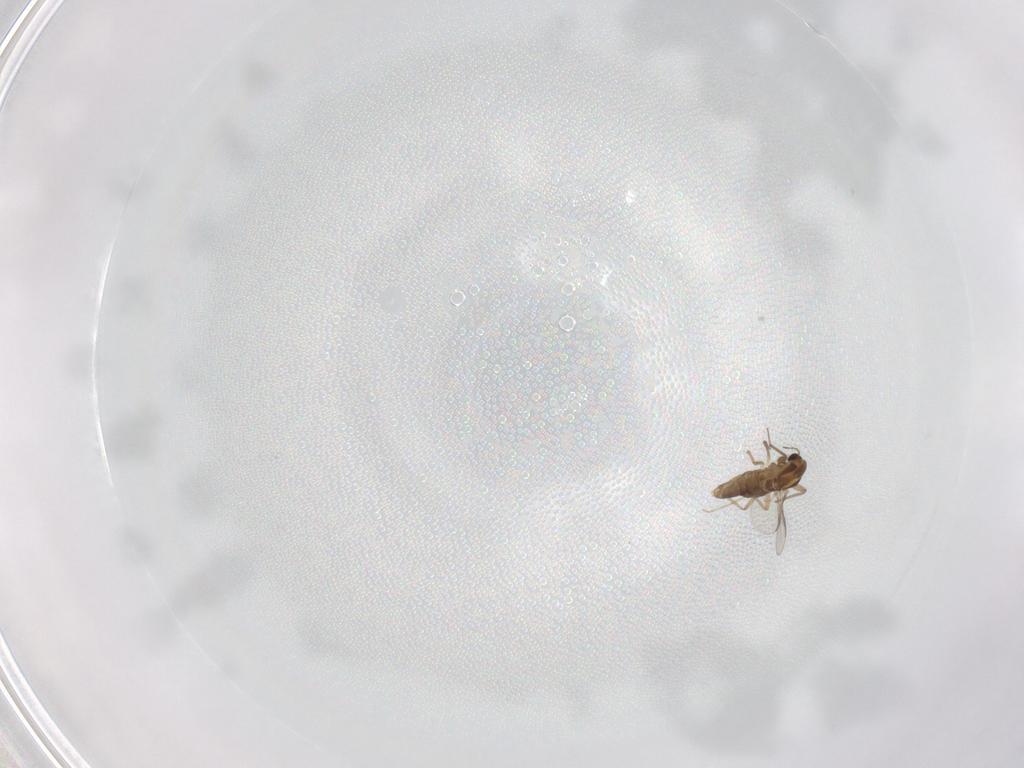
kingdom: Animalia
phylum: Arthropoda
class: Insecta
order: Diptera
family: Chironomidae
